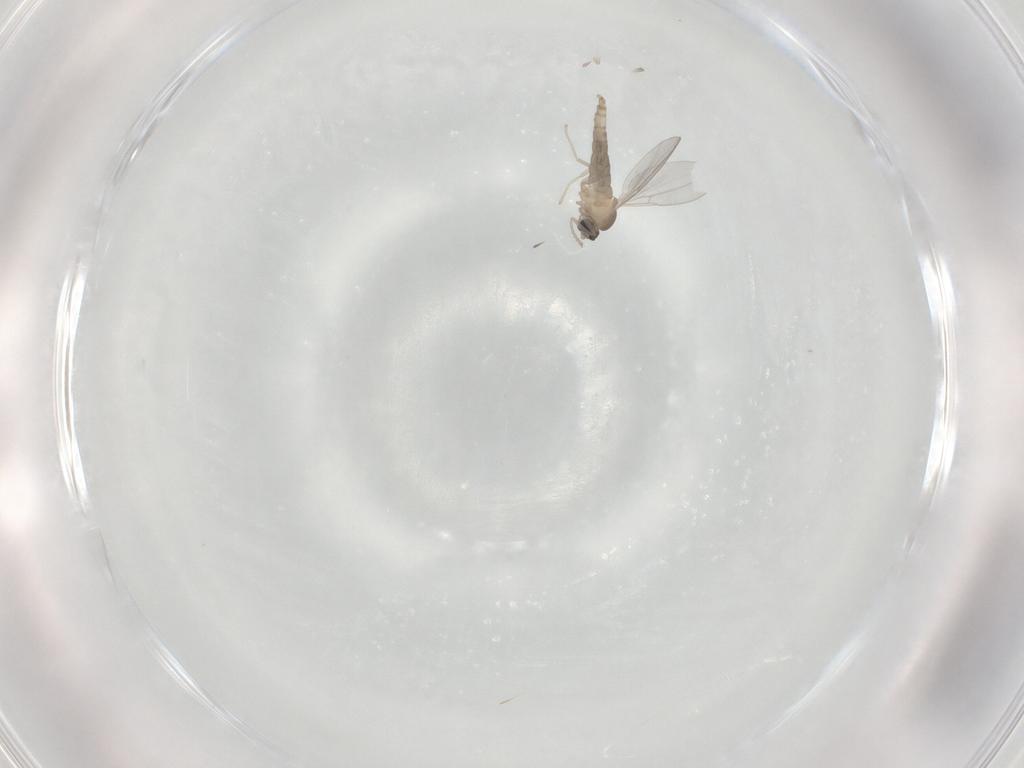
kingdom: Animalia
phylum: Arthropoda
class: Insecta
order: Diptera
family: Cecidomyiidae
